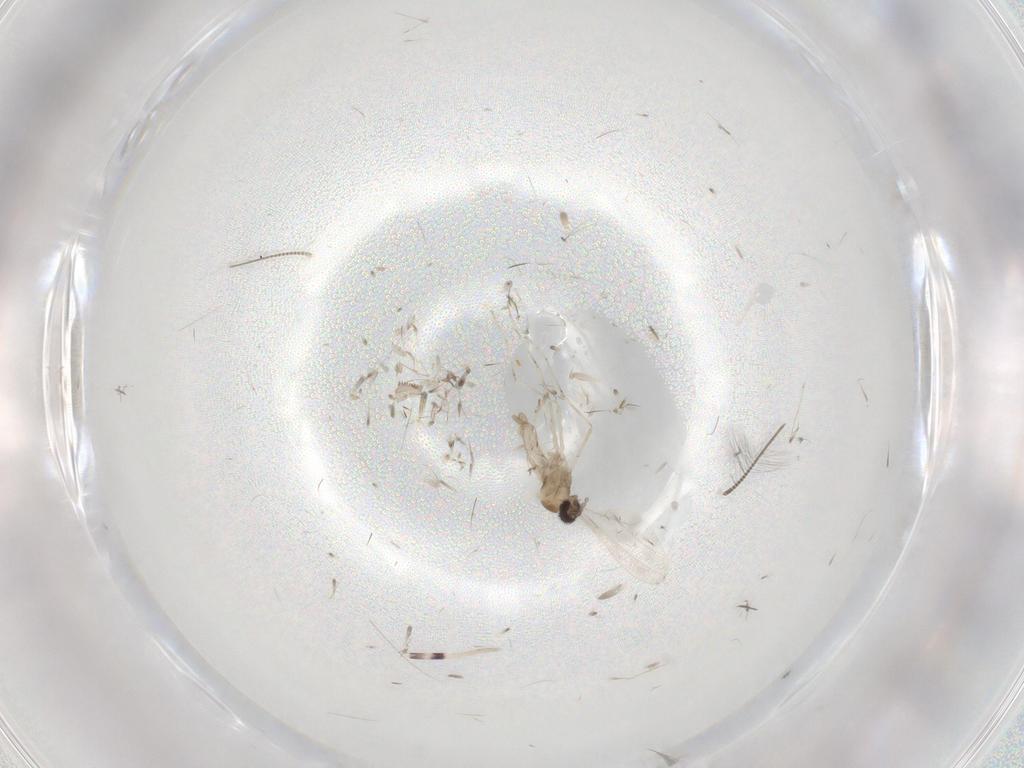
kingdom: Animalia
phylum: Arthropoda
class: Insecta
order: Diptera
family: Cecidomyiidae
